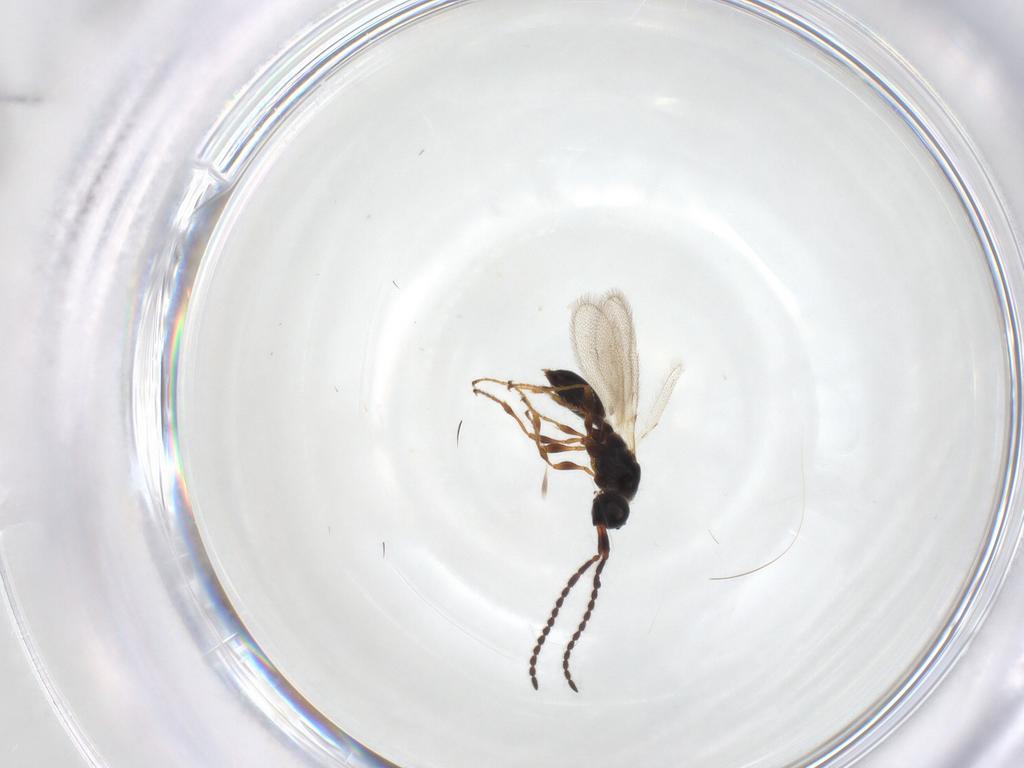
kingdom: Animalia
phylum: Arthropoda
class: Insecta
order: Hymenoptera
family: Diapriidae
